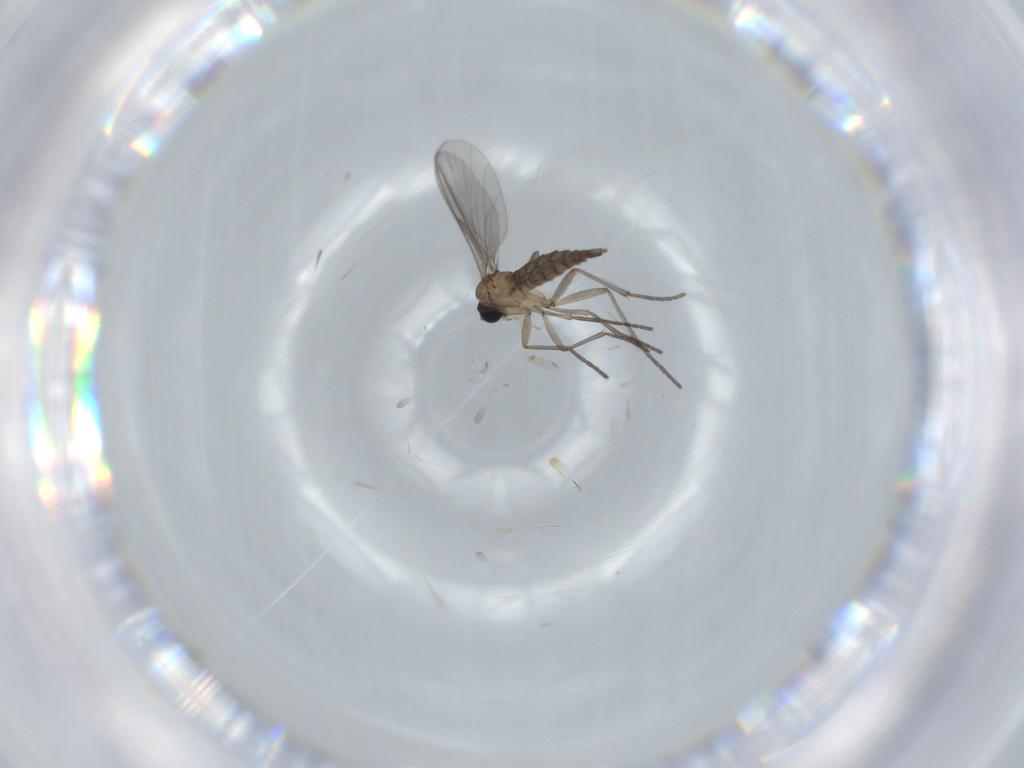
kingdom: Animalia
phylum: Arthropoda
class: Insecta
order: Diptera
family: Sciaridae
